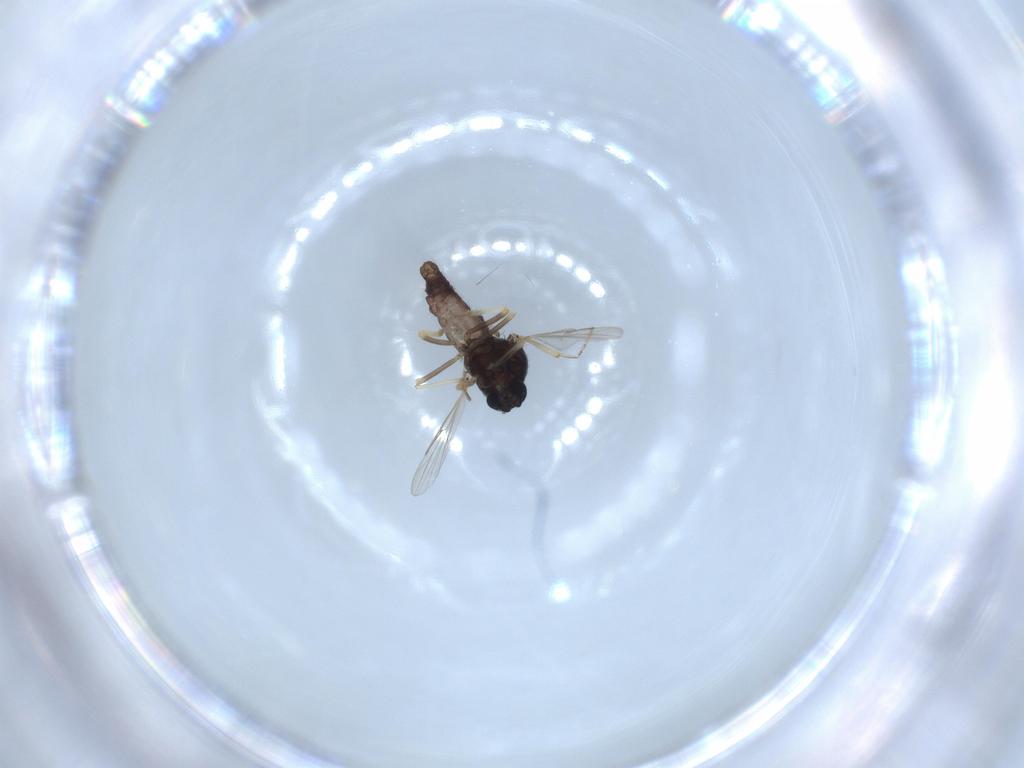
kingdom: Animalia
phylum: Arthropoda
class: Insecta
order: Diptera
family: Ceratopogonidae
